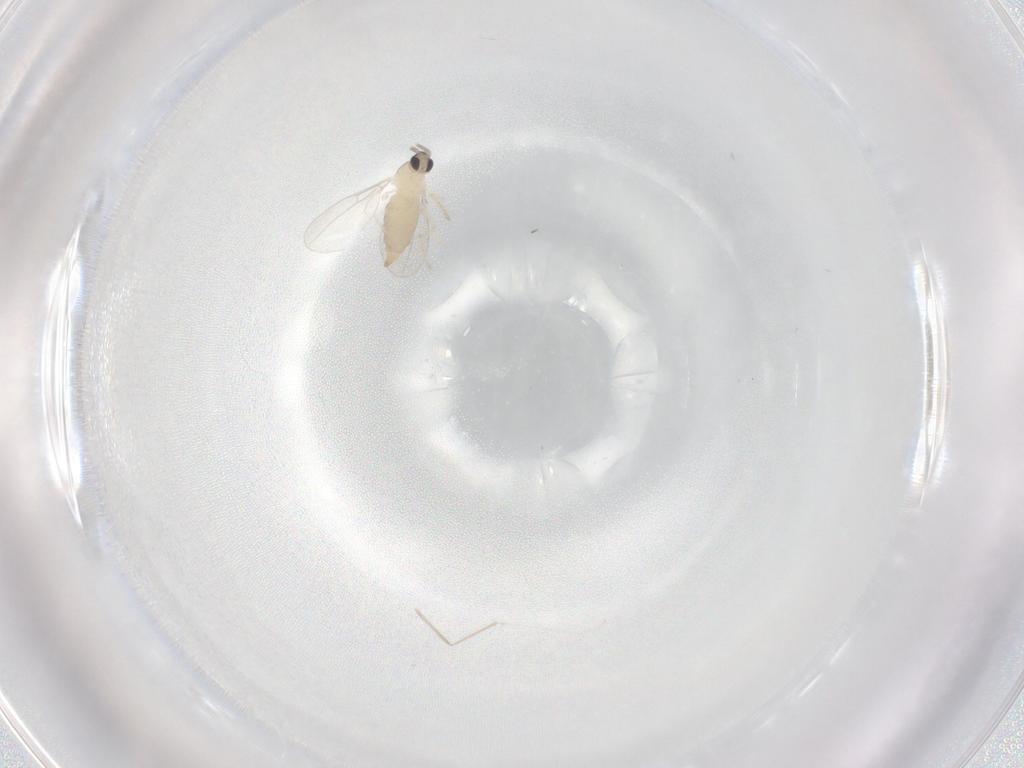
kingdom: Animalia
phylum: Arthropoda
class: Insecta
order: Diptera
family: Cecidomyiidae
